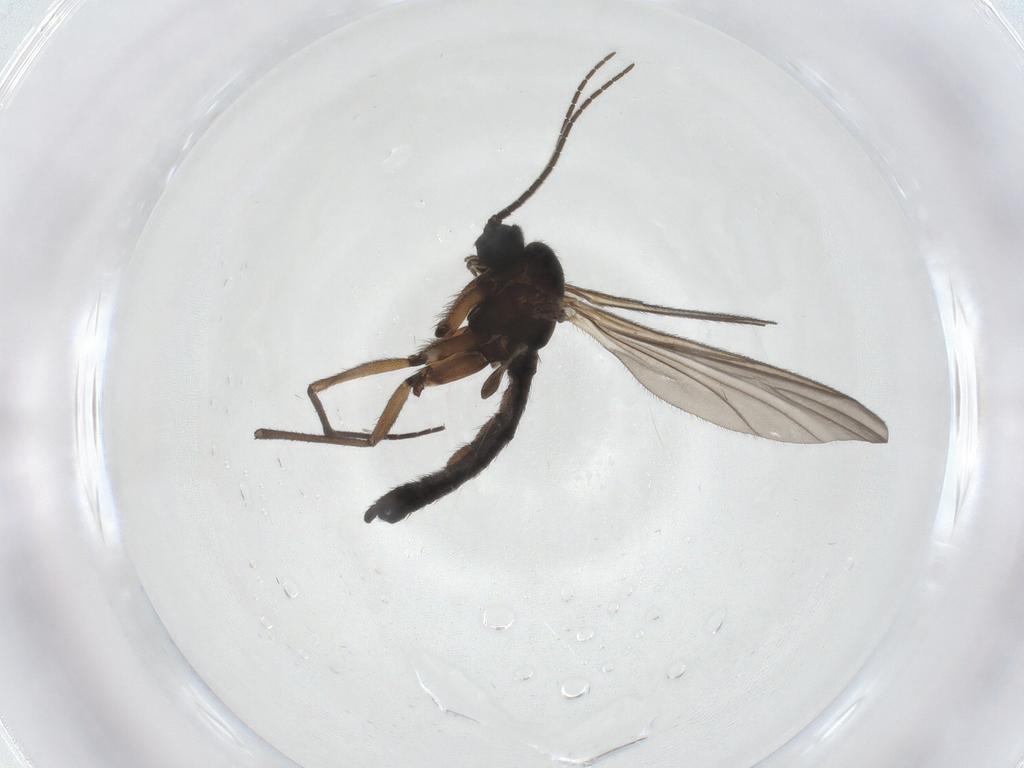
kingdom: Animalia
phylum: Arthropoda
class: Insecta
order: Diptera
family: Sciaridae
